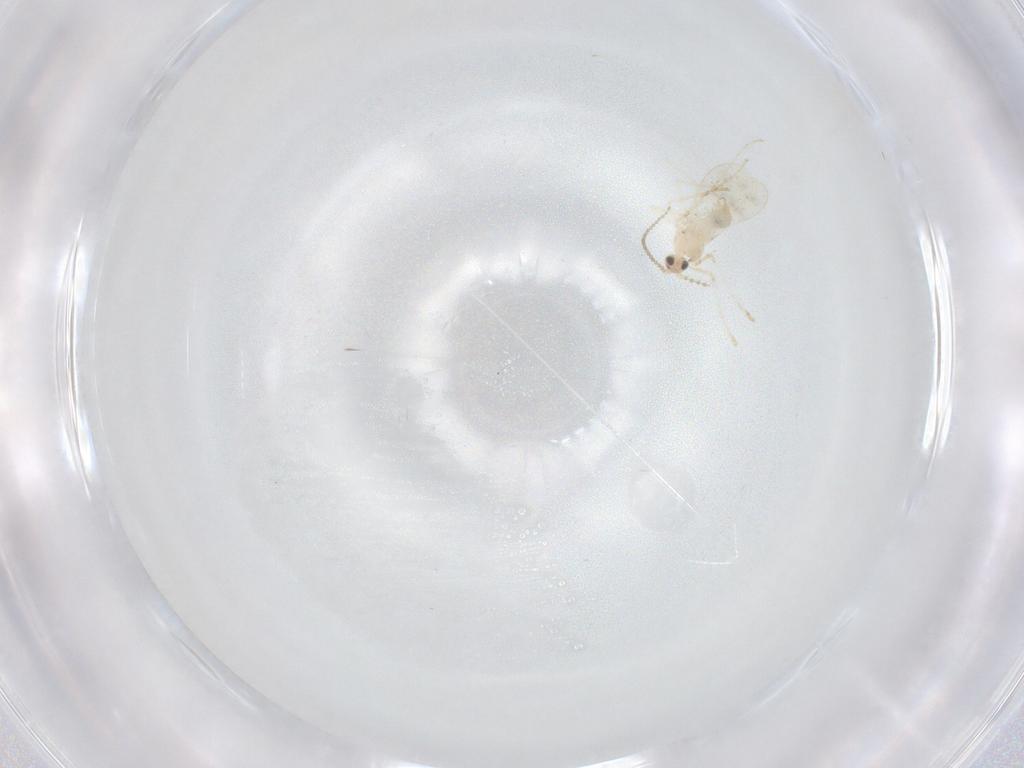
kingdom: Animalia
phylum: Arthropoda
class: Insecta
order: Diptera
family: Cecidomyiidae
